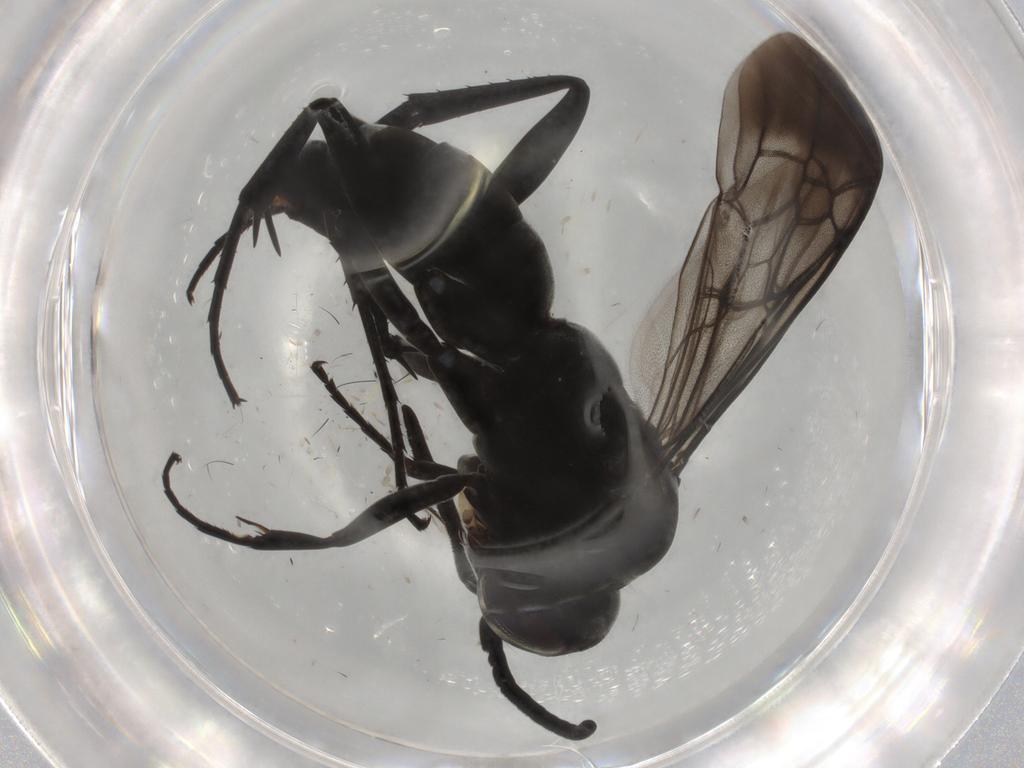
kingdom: Animalia
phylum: Arthropoda
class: Insecta
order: Hymenoptera
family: Pompilidae
